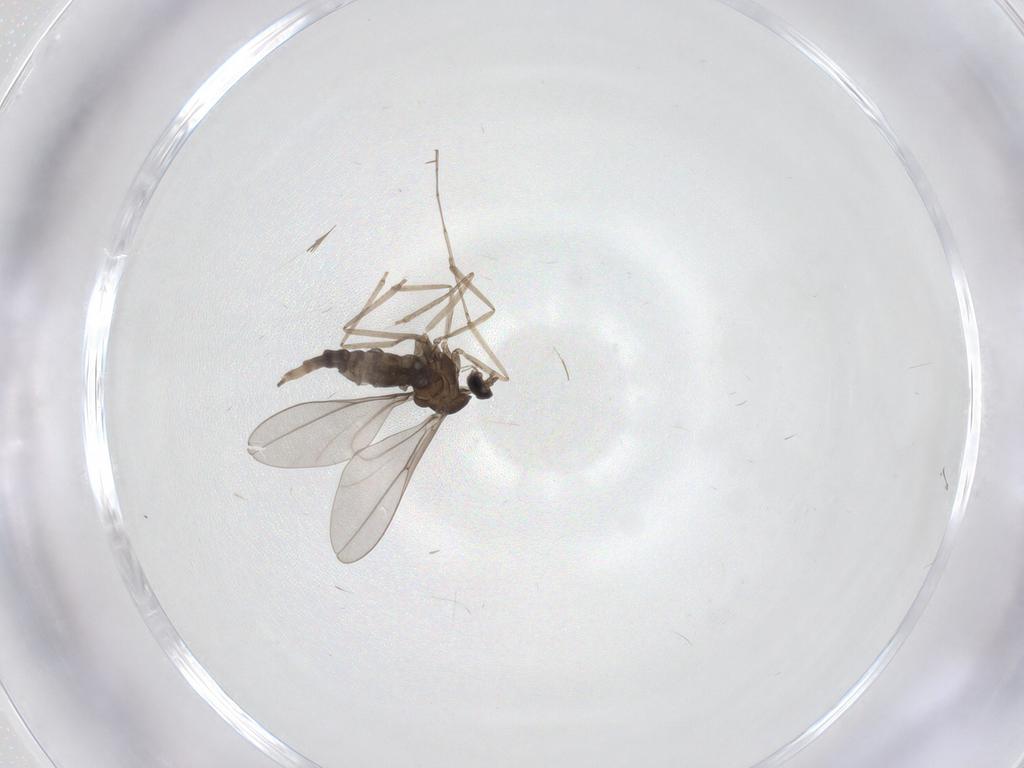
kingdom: Animalia
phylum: Arthropoda
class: Insecta
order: Diptera
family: Cecidomyiidae
